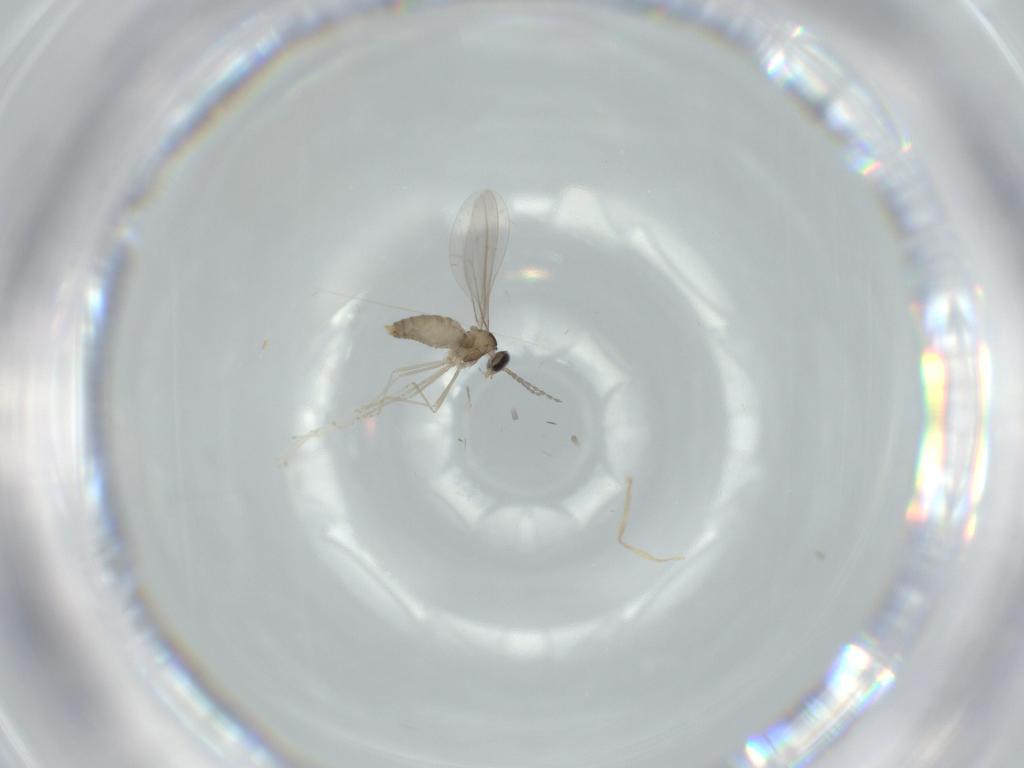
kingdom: Animalia
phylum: Arthropoda
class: Insecta
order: Diptera
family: Cecidomyiidae
